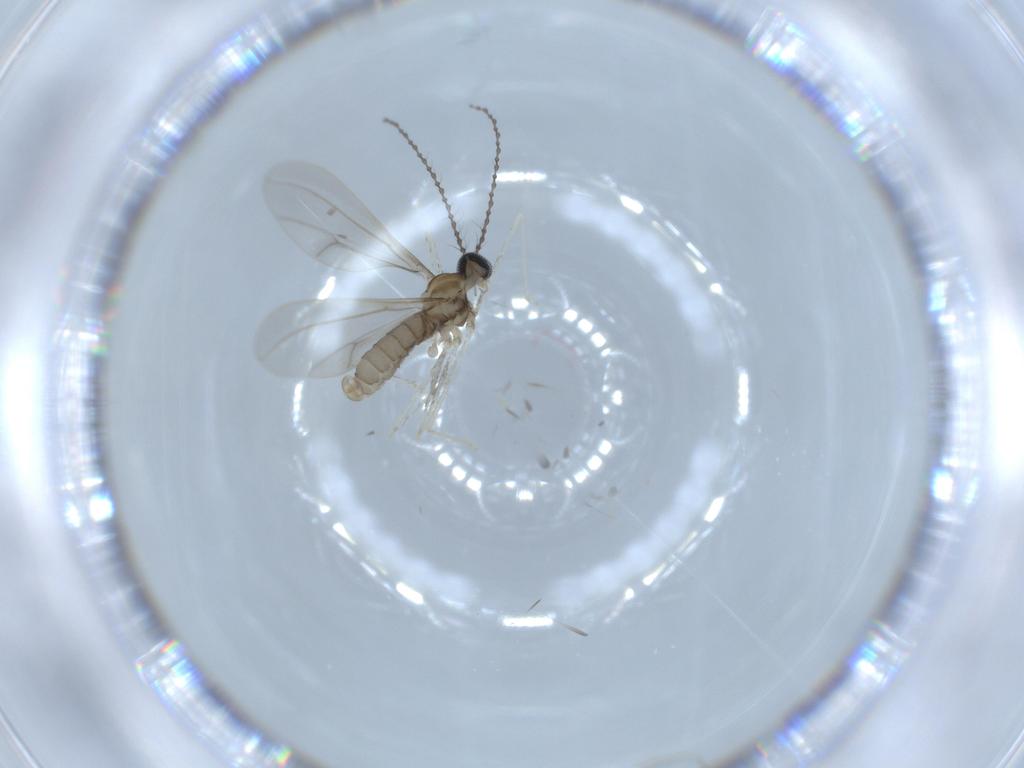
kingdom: Animalia
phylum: Arthropoda
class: Insecta
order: Diptera
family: Cecidomyiidae
